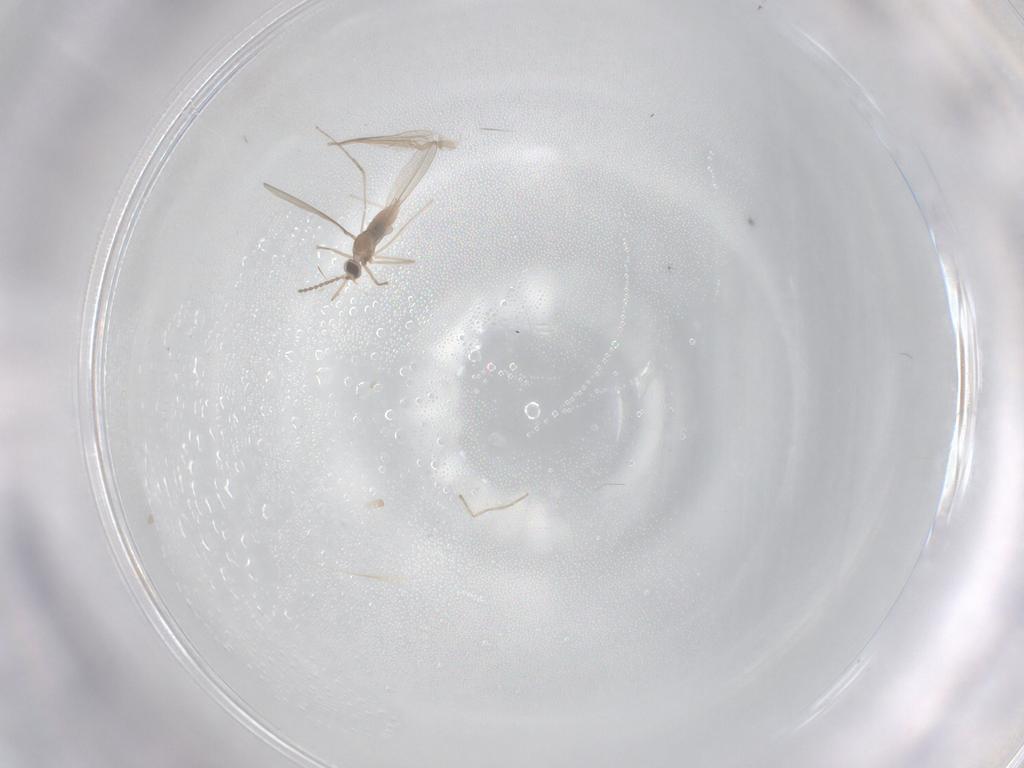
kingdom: Animalia
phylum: Arthropoda
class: Insecta
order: Diptera
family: Cecidomyiidae
